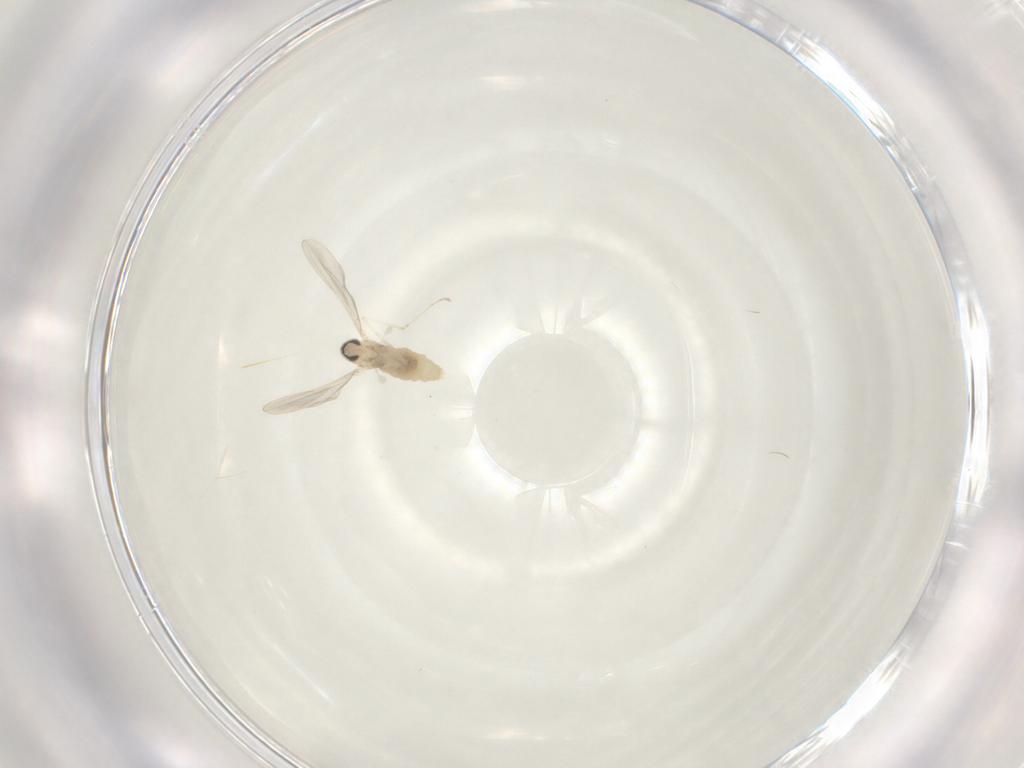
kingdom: Animalia
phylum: Arthropoda
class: Insecta
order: Diptera
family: Cecidomyiidae
